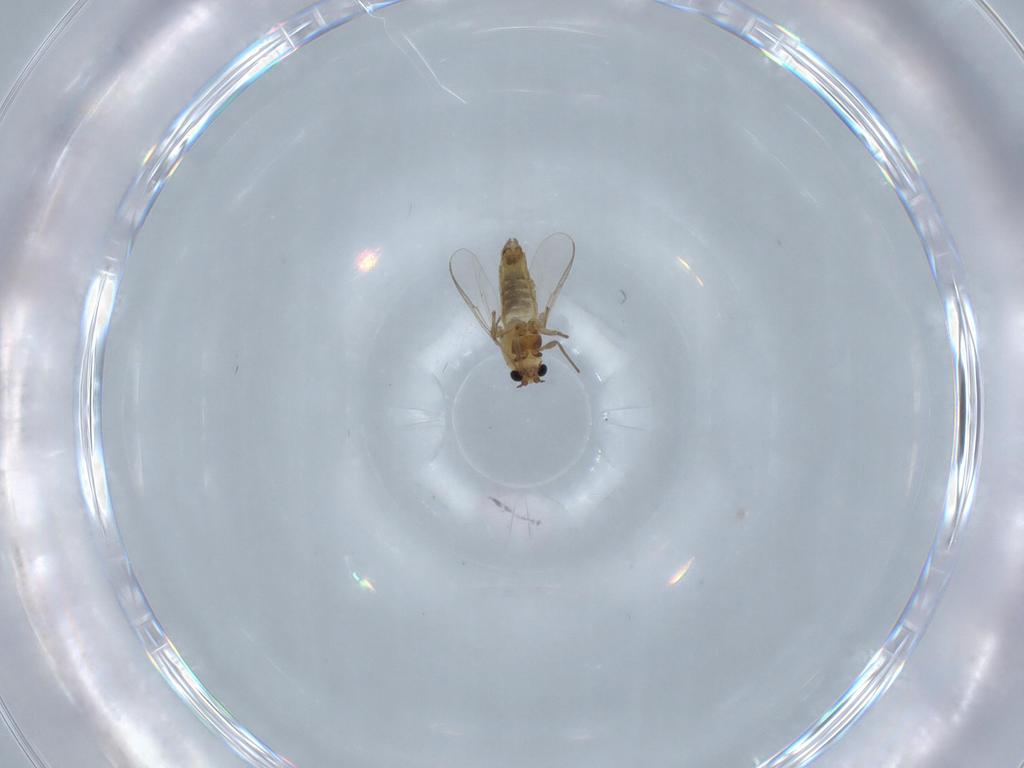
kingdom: Animalia
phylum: Arthropoda
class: Insecta
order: Diptera
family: Chironomidae
